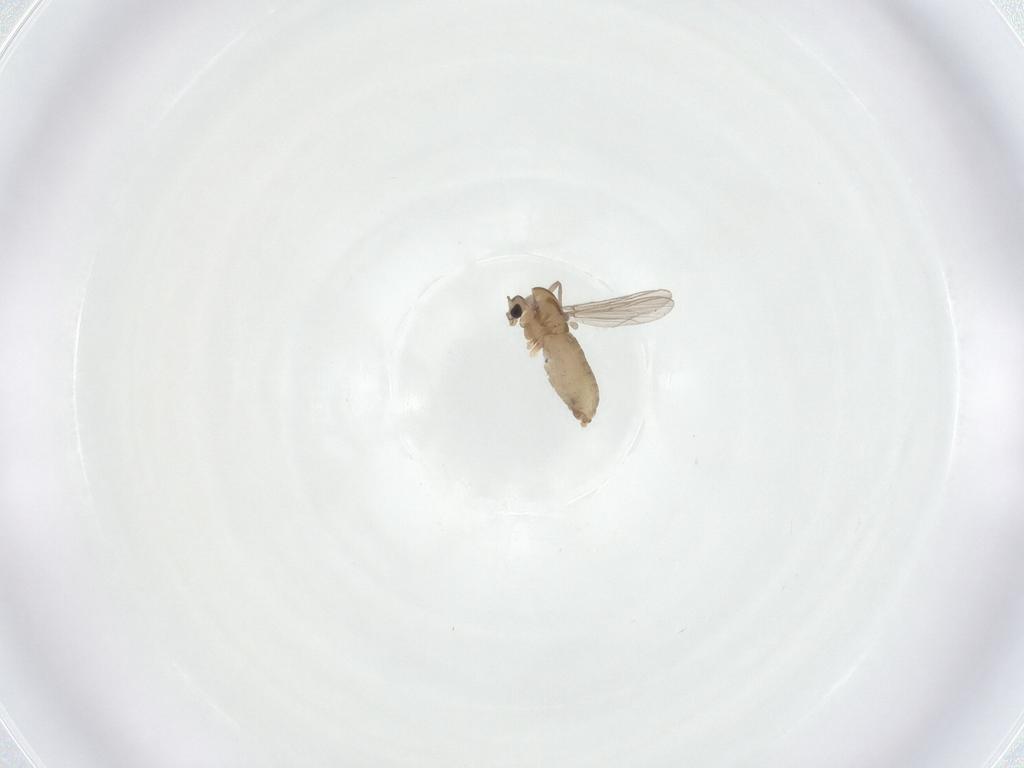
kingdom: Animalia
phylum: Arthropoda
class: Insecta
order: Diptera
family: Chironomidae
